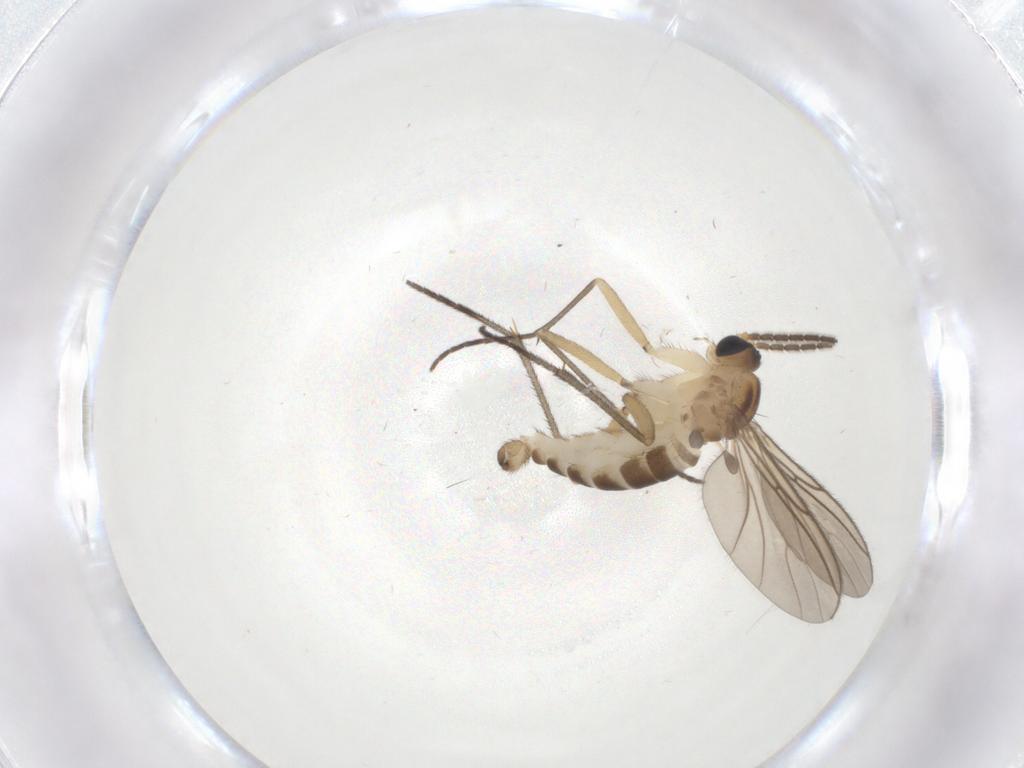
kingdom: Animalia
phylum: Arthropoda
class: Insecta
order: Diptera
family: Sciaridae
